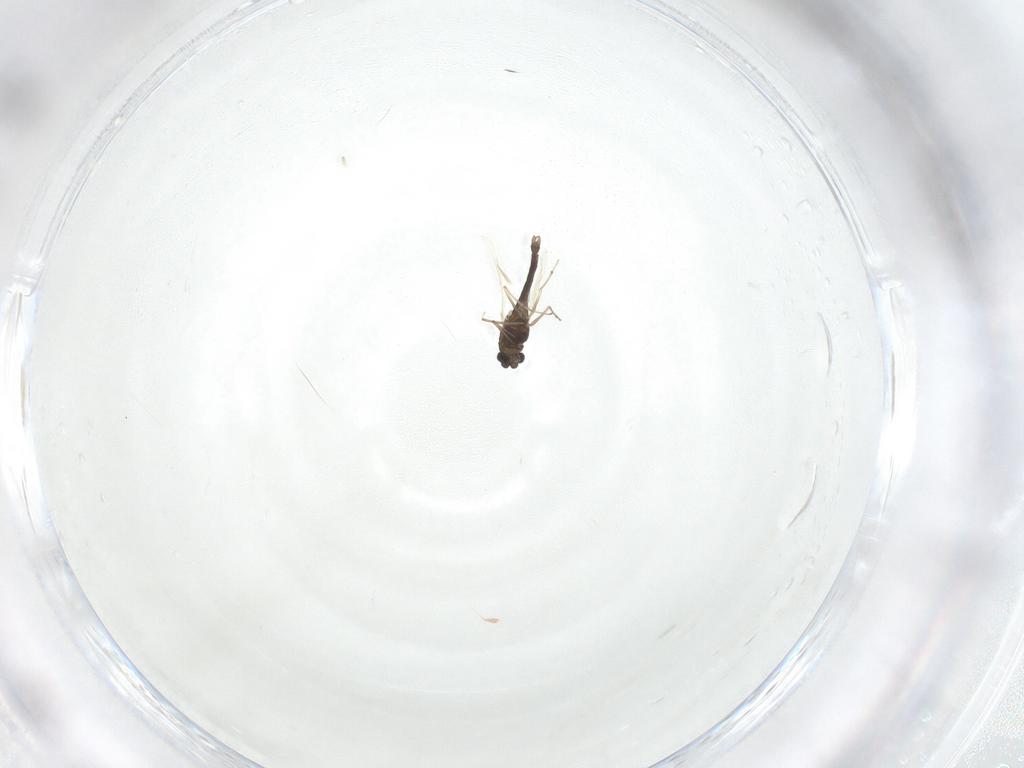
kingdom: Animalia
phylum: Arthropoda
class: Insecta
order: Diptera
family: Chironomidae
